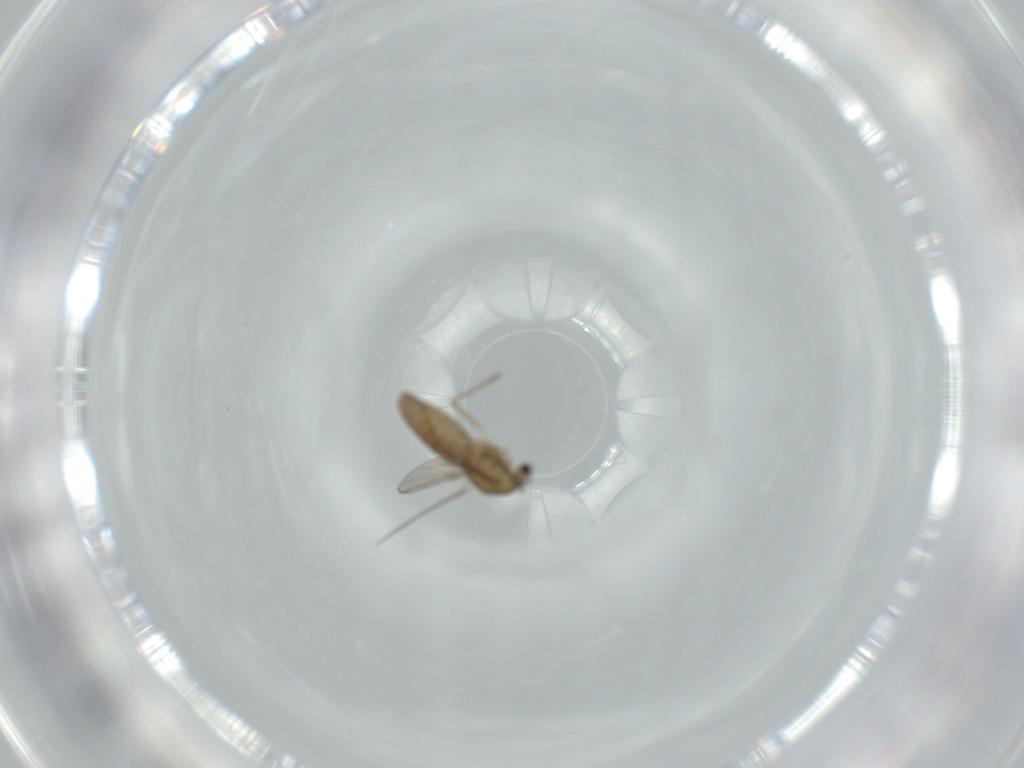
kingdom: Animalia
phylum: Arthropoda
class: Insecta
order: Diptera
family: Chironomidae
